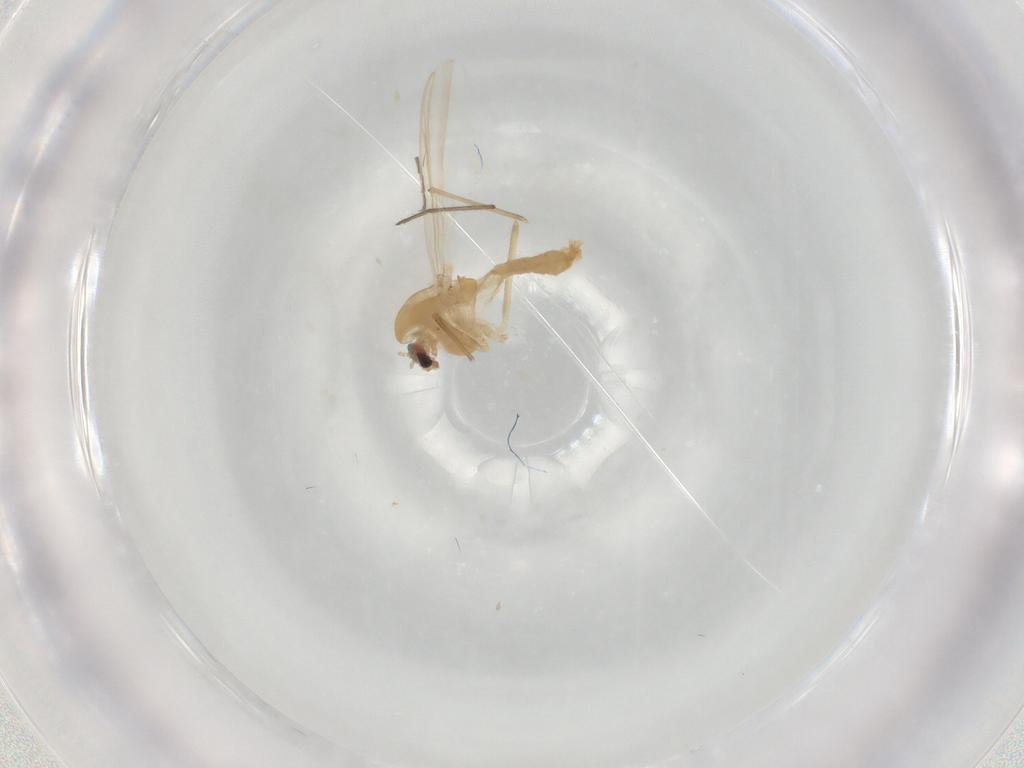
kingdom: Animalia
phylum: Arthropoda
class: Insecta
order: Diptera
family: Chironomidae
